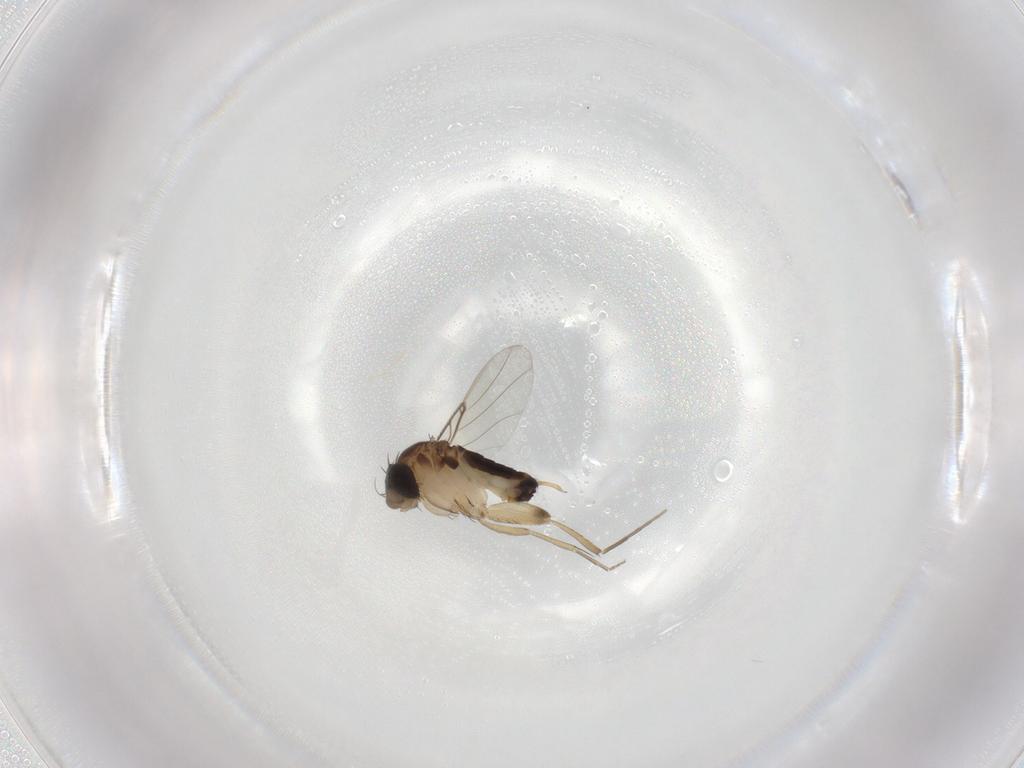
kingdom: Animalia
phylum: Arthropoda
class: Insecta
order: Diptera
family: Phoridae
